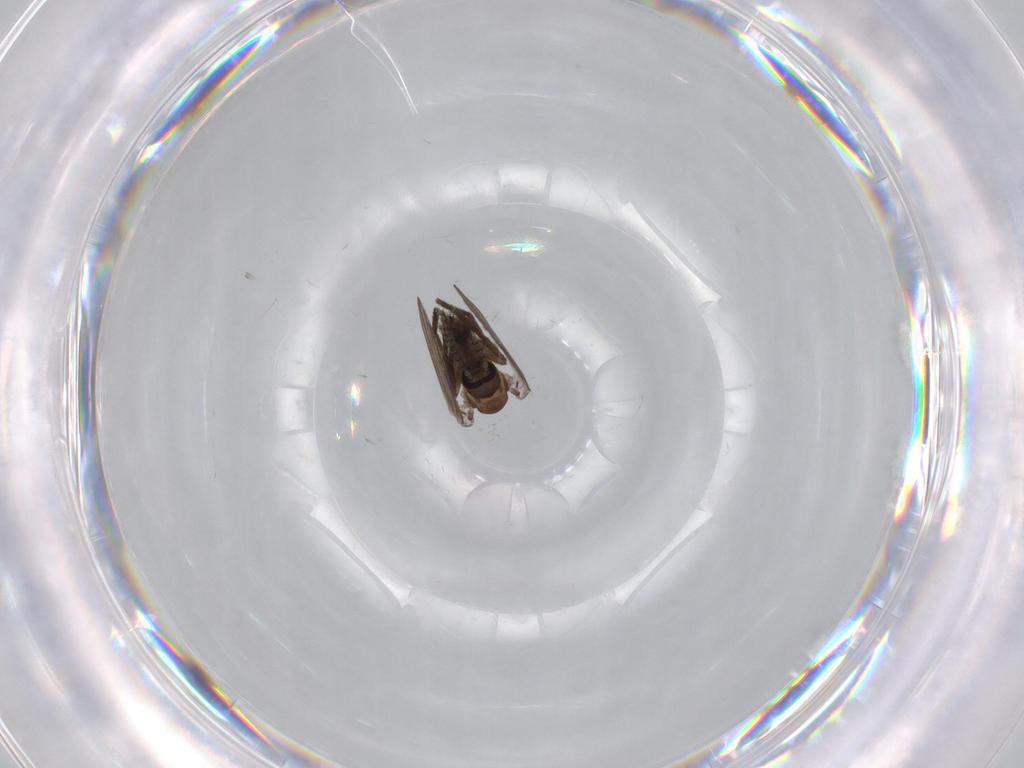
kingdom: Animalia
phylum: Arthropoda
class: Insecta
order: Diptera
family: Psychodidae
